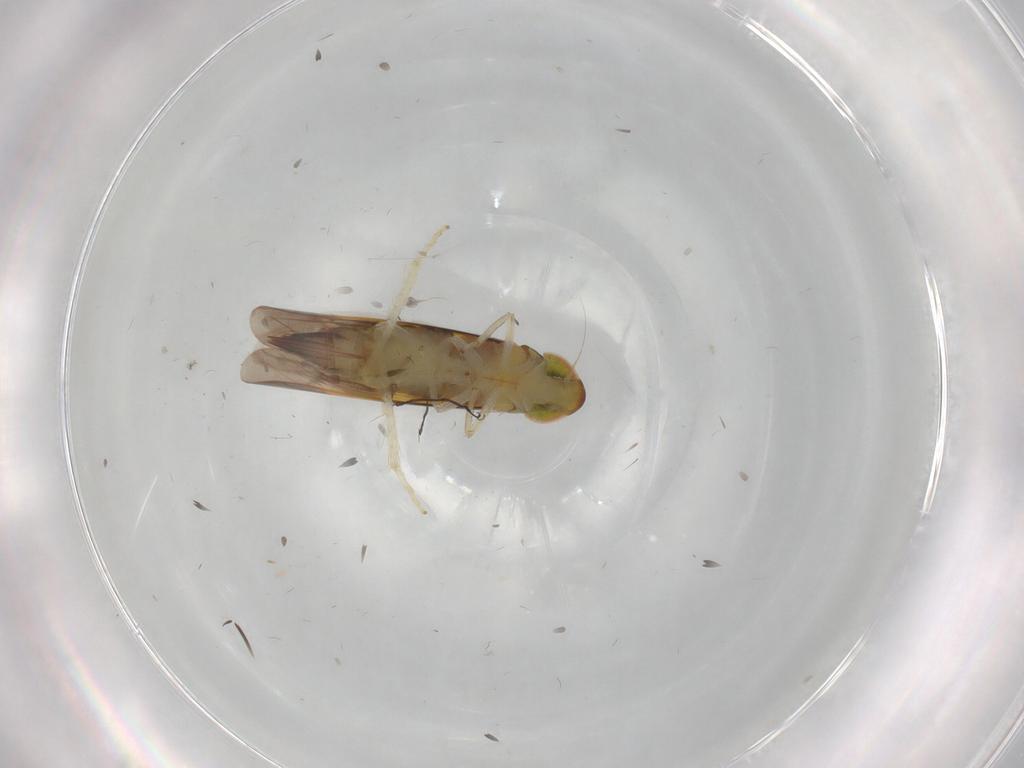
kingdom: Animalia
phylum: Arthropoda
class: Insecta
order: Hemiptera
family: Cicadellidae
